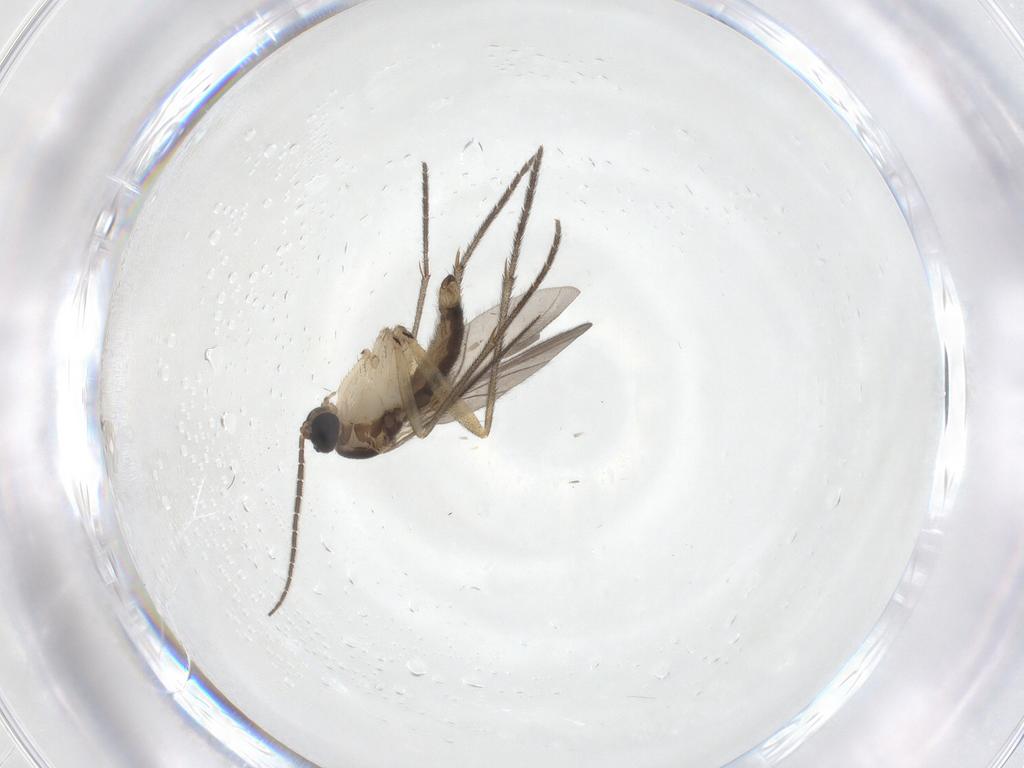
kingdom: Animalia
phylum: Arthropoda
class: Insecta
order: Diptera
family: Sciaridae
